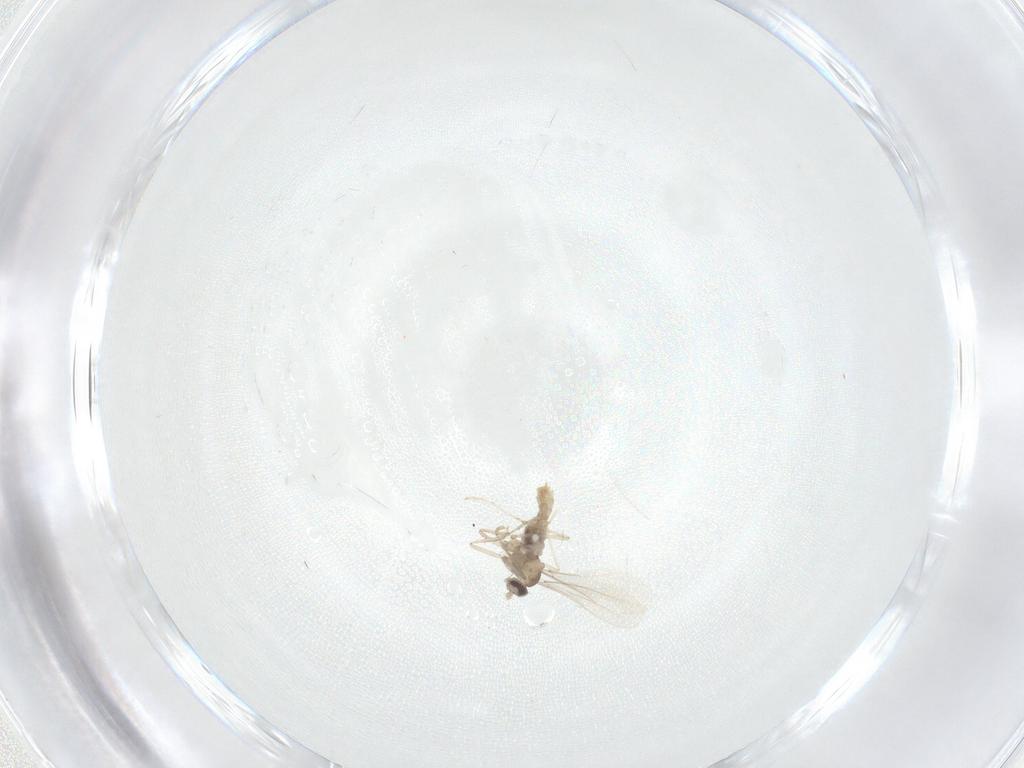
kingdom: Animalia
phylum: Arthropoda
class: Insecta
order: Diptera
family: Cecidomyiidae
